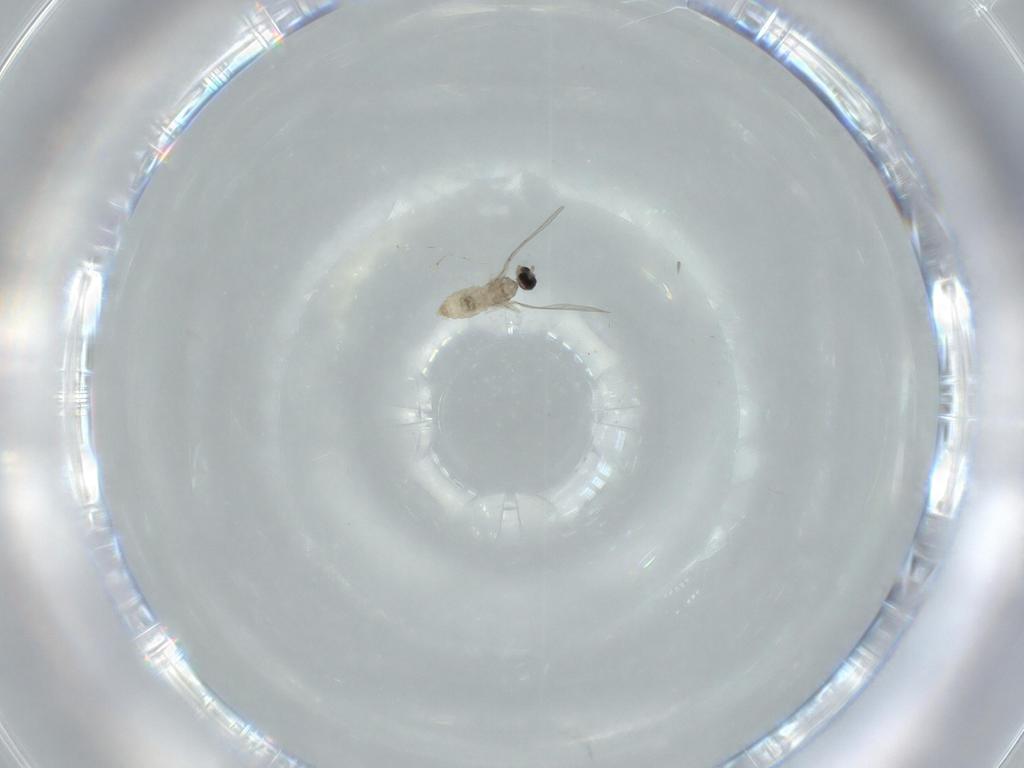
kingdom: Animalia
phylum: Arthropoda
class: Insecta
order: Diptera
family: Cecidomyiidae
